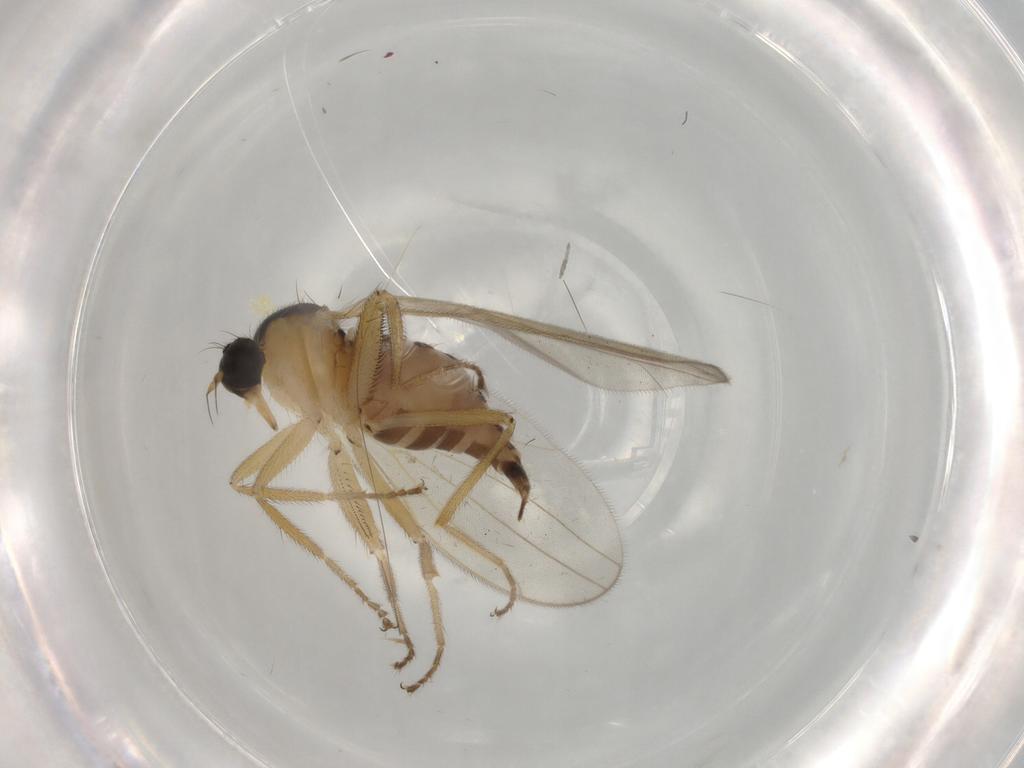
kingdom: Animalia
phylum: Arthropoda
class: Insecta
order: Diptera
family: Hybotidae
